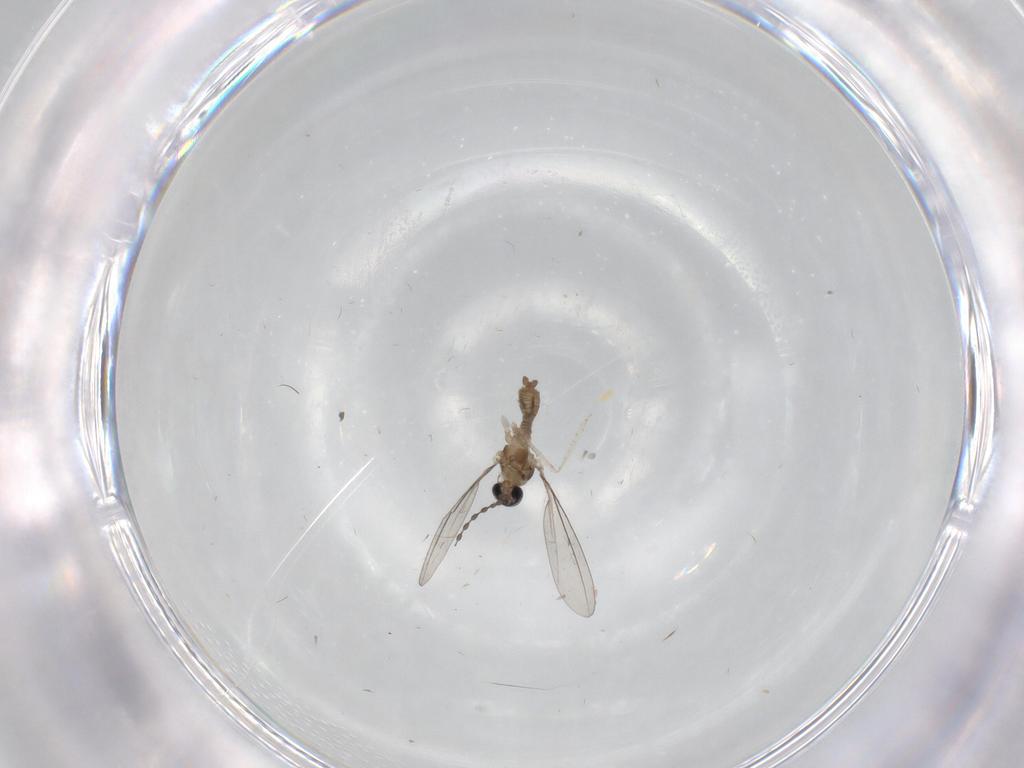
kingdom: Animalia
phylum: Arthropoda
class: Insecta
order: Diptera
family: Cecidomyiidae
